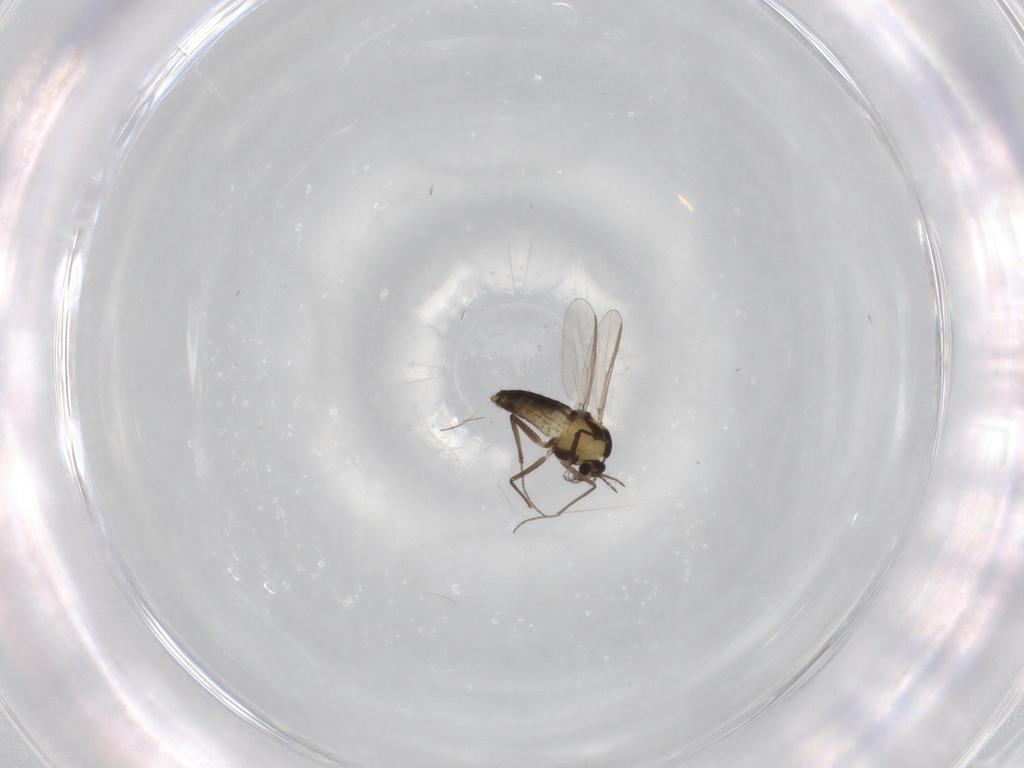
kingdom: Animalia
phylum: Arthropoda
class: Insecta
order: Diptera
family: Chironomidae
